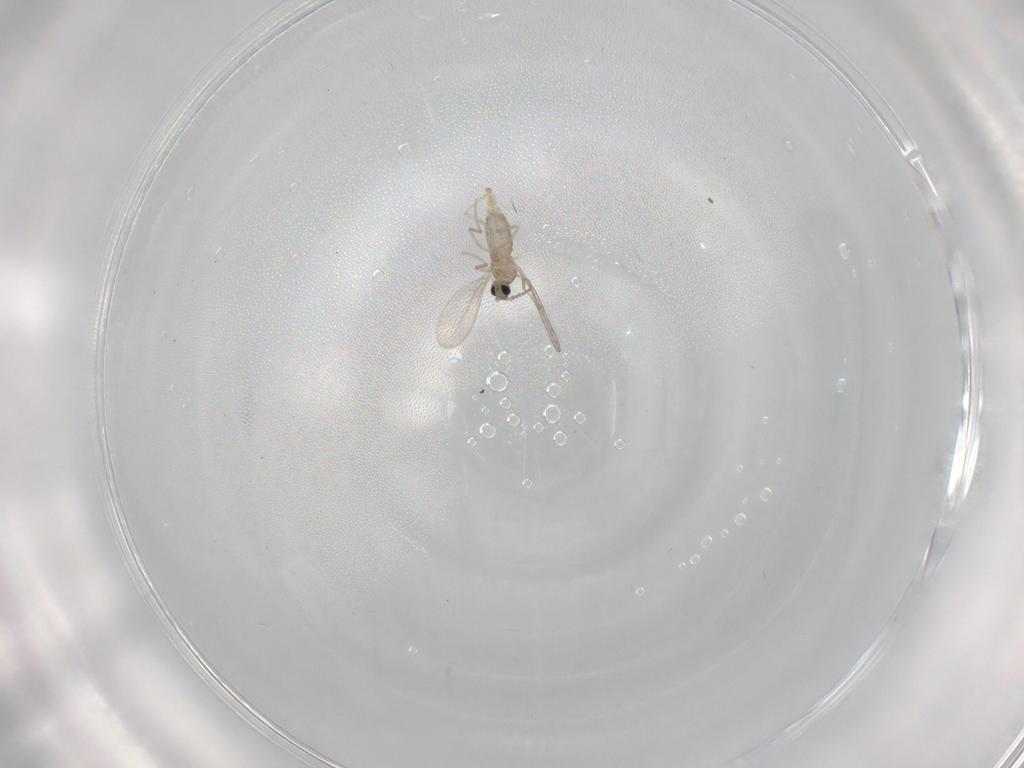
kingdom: Animalia
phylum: Arthropoda
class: Insecta
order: Diptera
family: Cecidomyiidae
